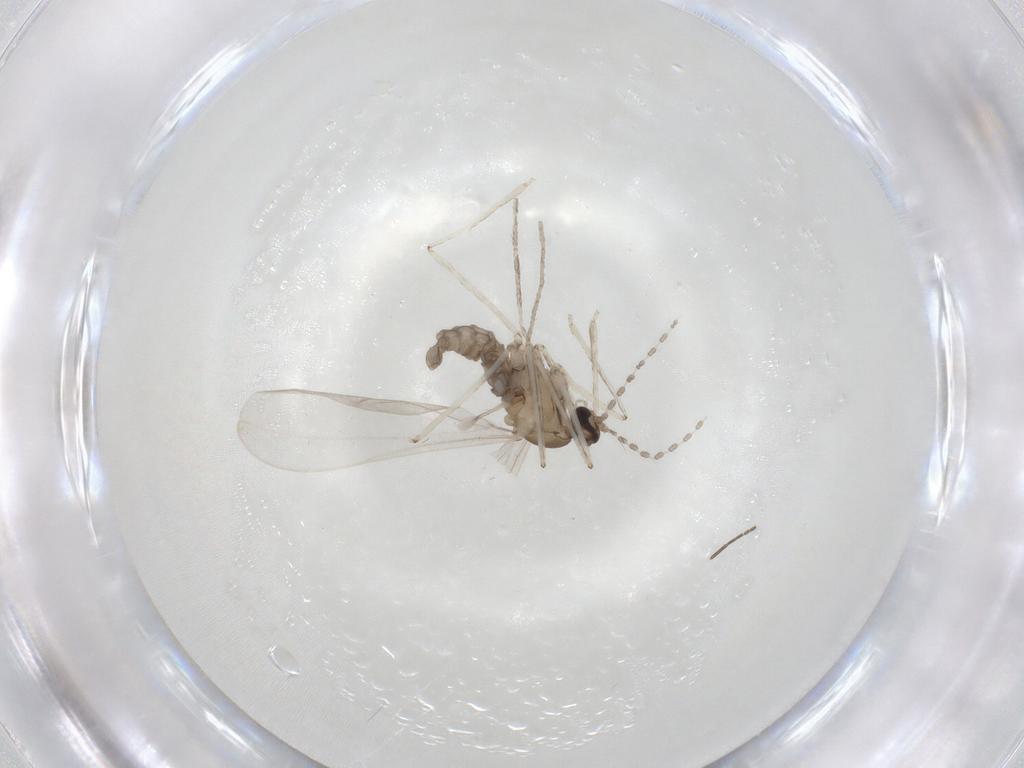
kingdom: Animalia
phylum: Arthropoda
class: Insecta
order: Diptera
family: Cecidomyiidae
